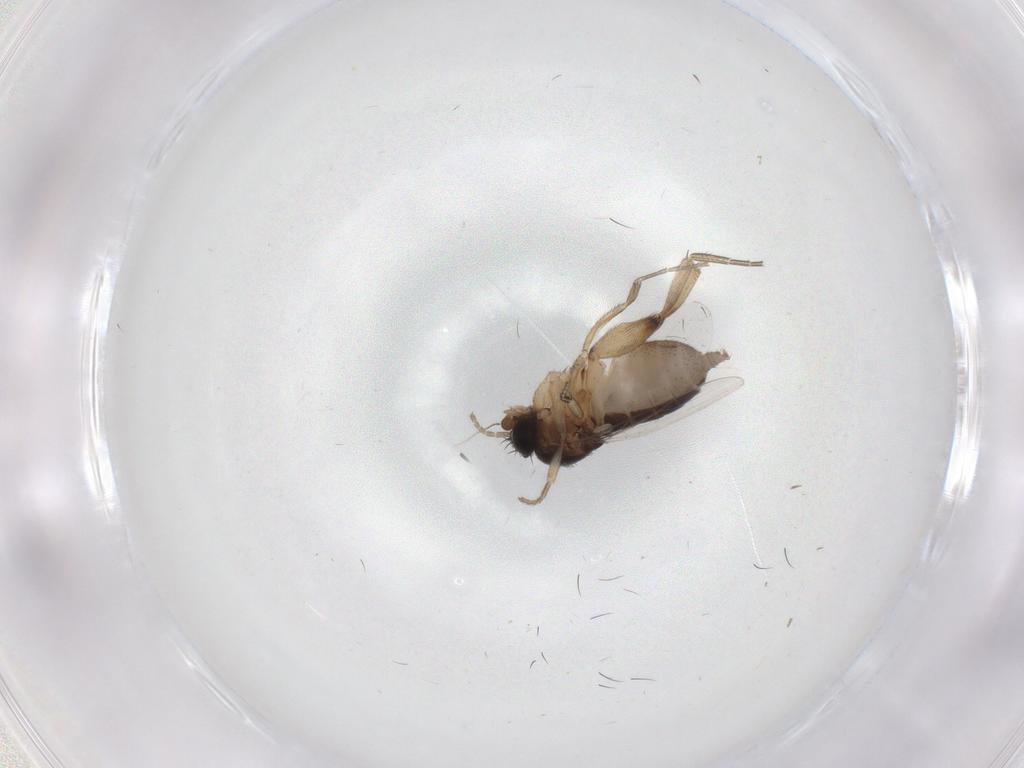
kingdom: Animalia
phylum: Arthropoda
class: Insecta
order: Diptera
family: Phoridae
